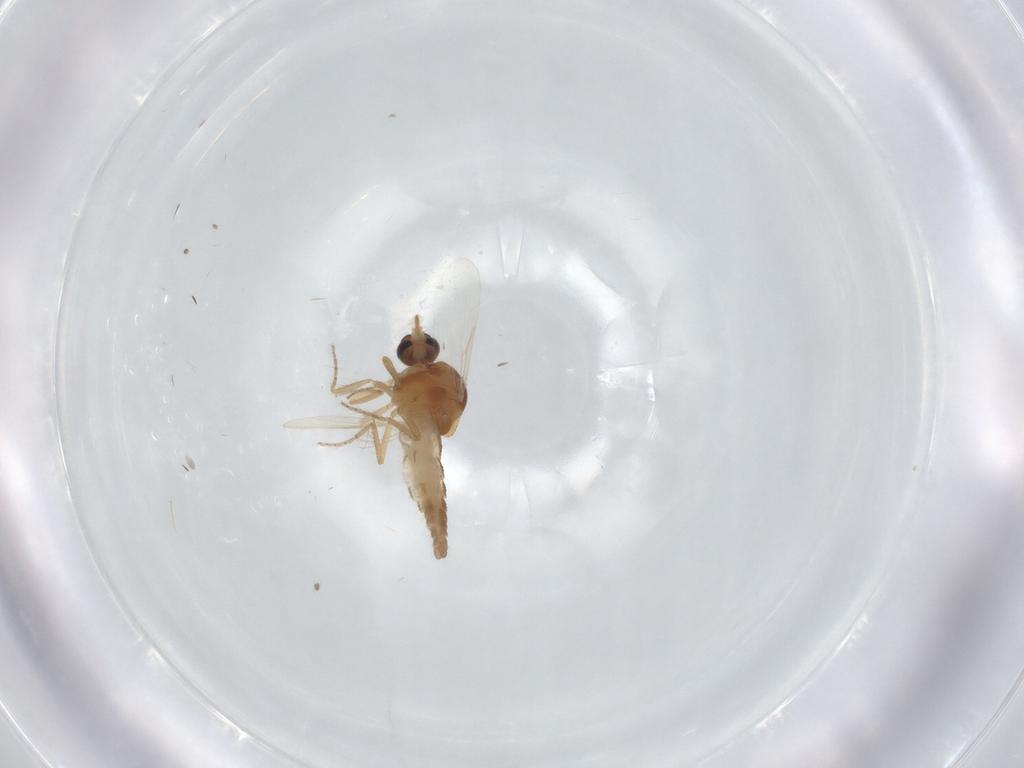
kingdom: Animalia
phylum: Arthropoda
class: Insecta
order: Diptera
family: Ceratopogonidae
